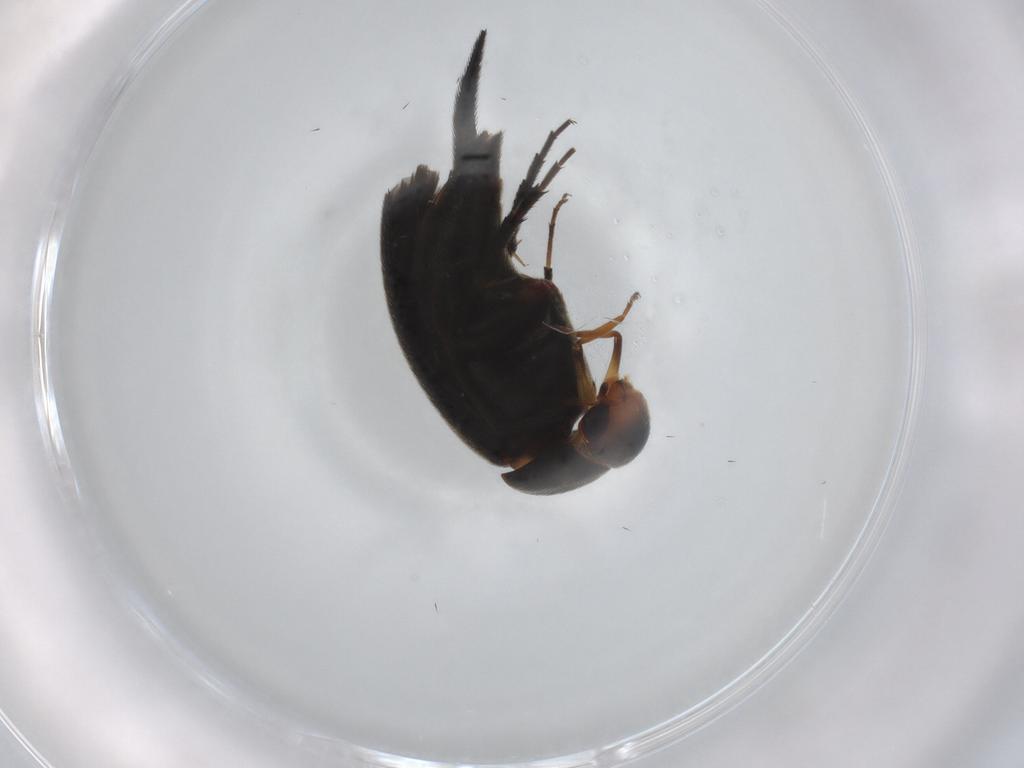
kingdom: Animalia
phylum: Arthropoda
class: Insecta
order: Coleoptera
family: Mordellidae
